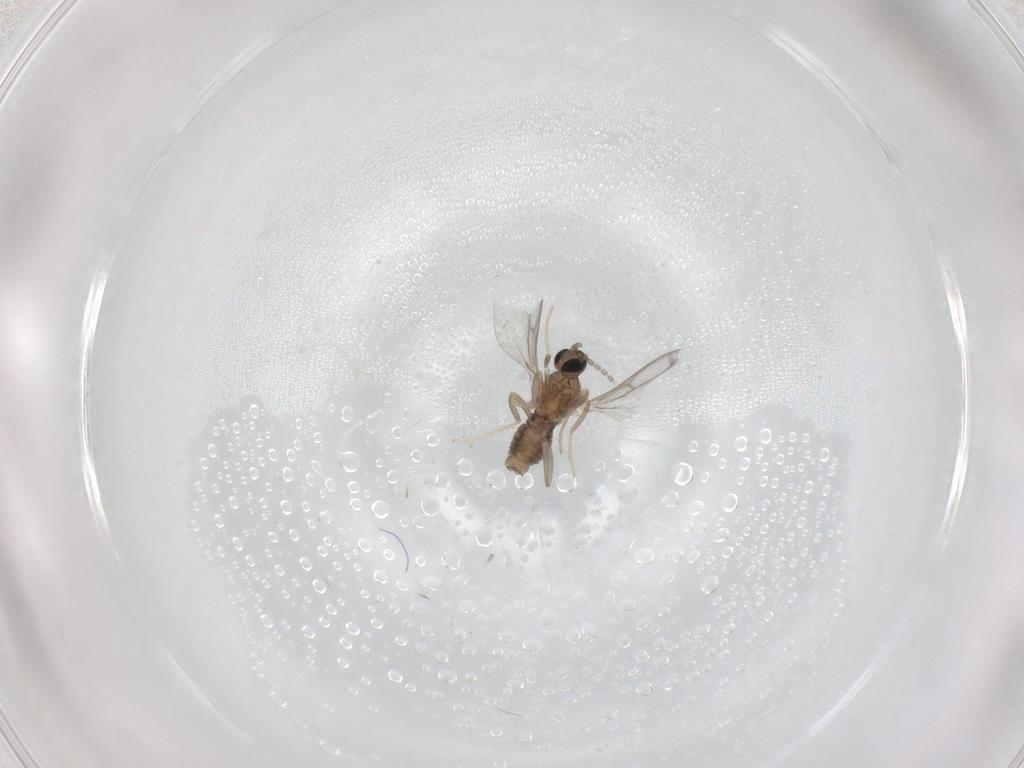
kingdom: Animalia
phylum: Arthropoda
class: Insecta
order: Diptera
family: Cecidomyiidae
